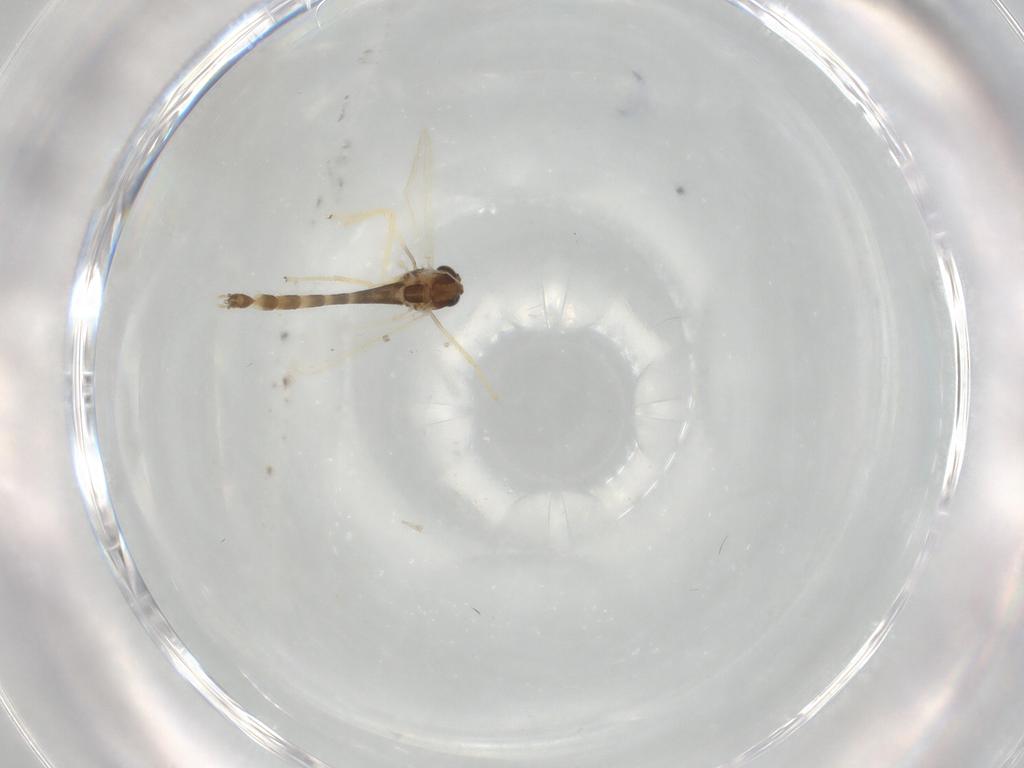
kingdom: Animalia
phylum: Arthropoda
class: Insecta
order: Diptera
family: Chironomidae
